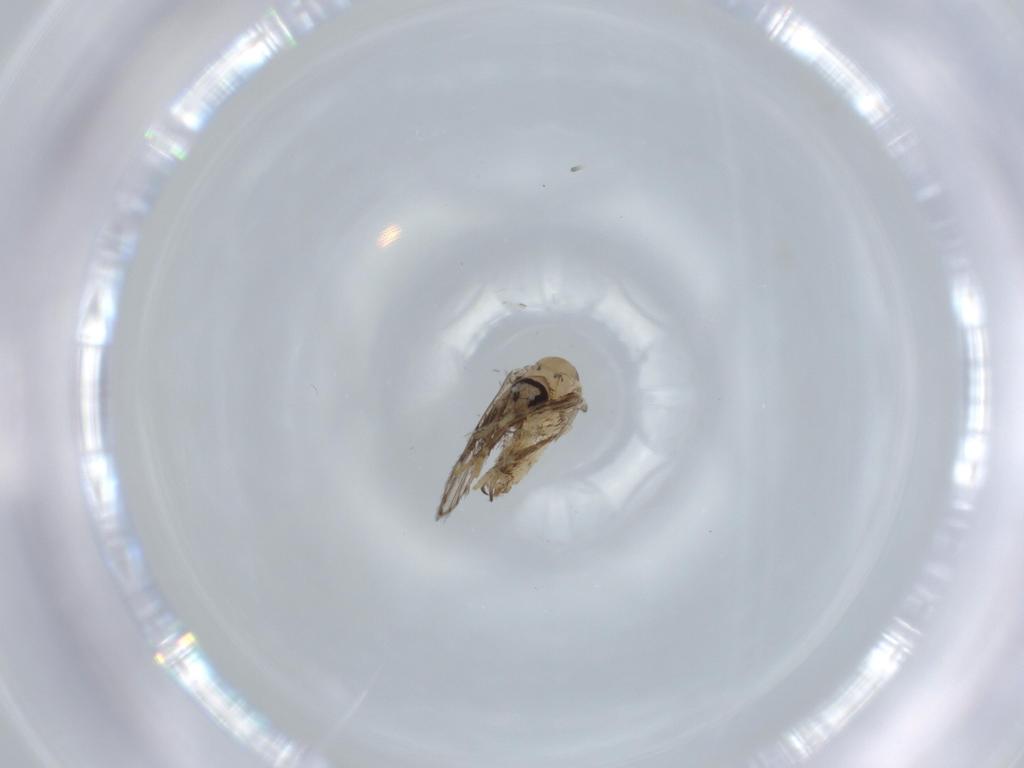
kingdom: Animalia
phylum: Arthropoda
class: Insecta
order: Diptera
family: Psychodidae
